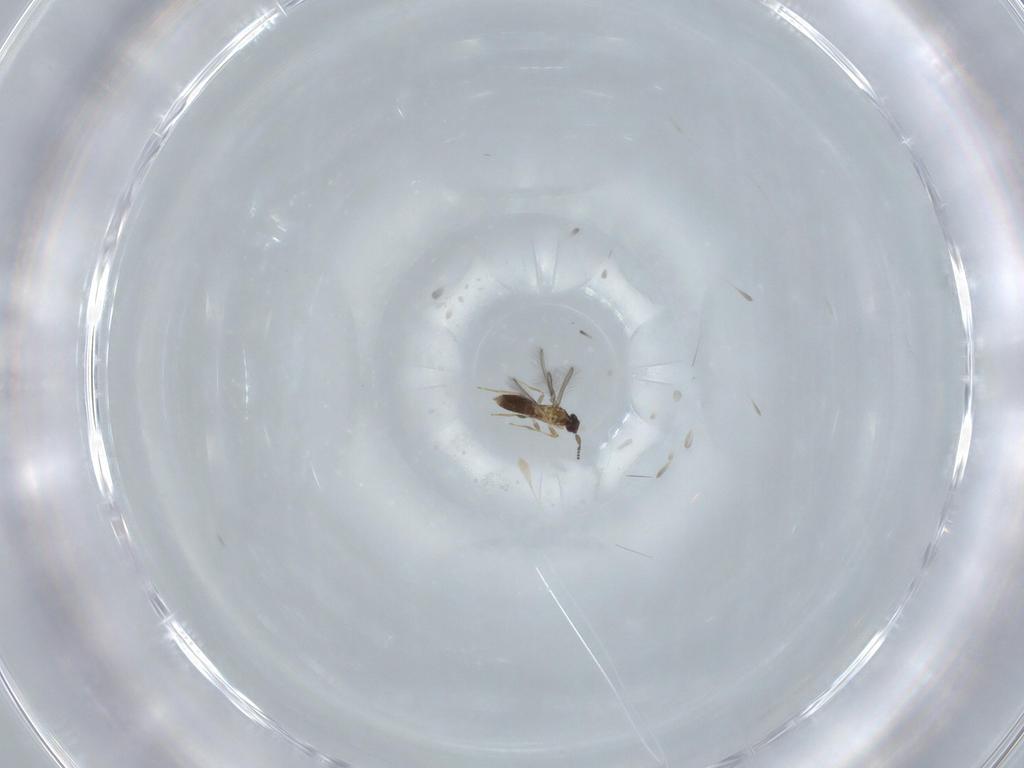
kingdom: Animalia
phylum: Arthropoda
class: Insecta
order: Hymenoptera
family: Mymaridae
